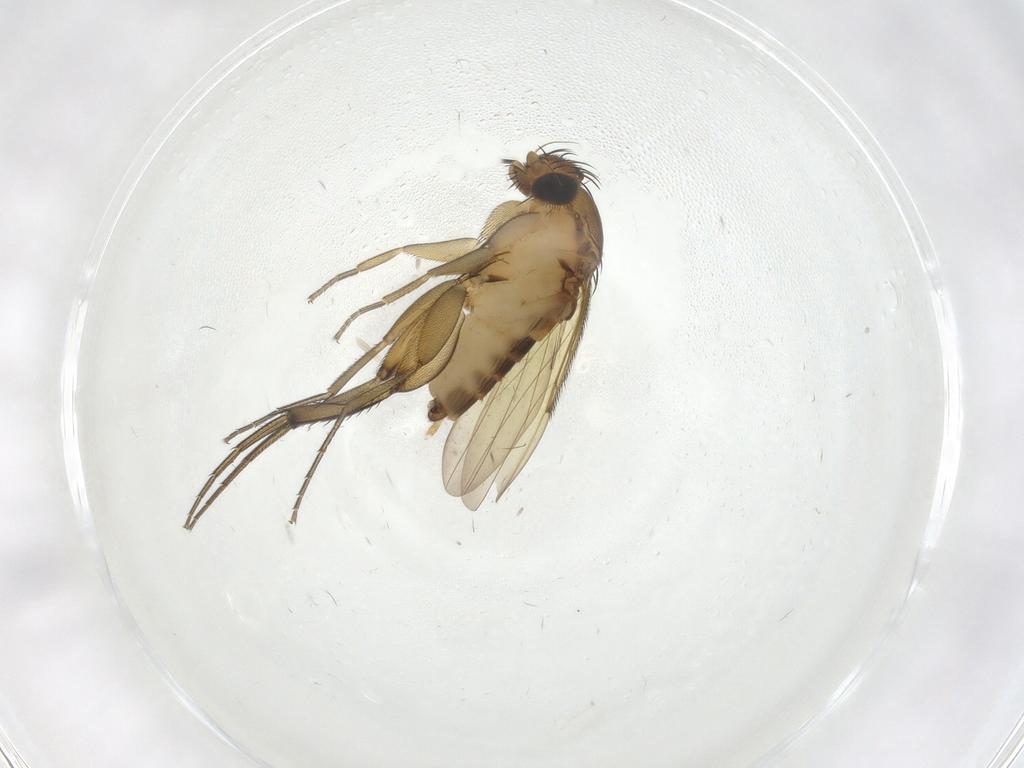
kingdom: Animalia
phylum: Arthropoda
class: Insecta
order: Diptera
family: Phoridae
